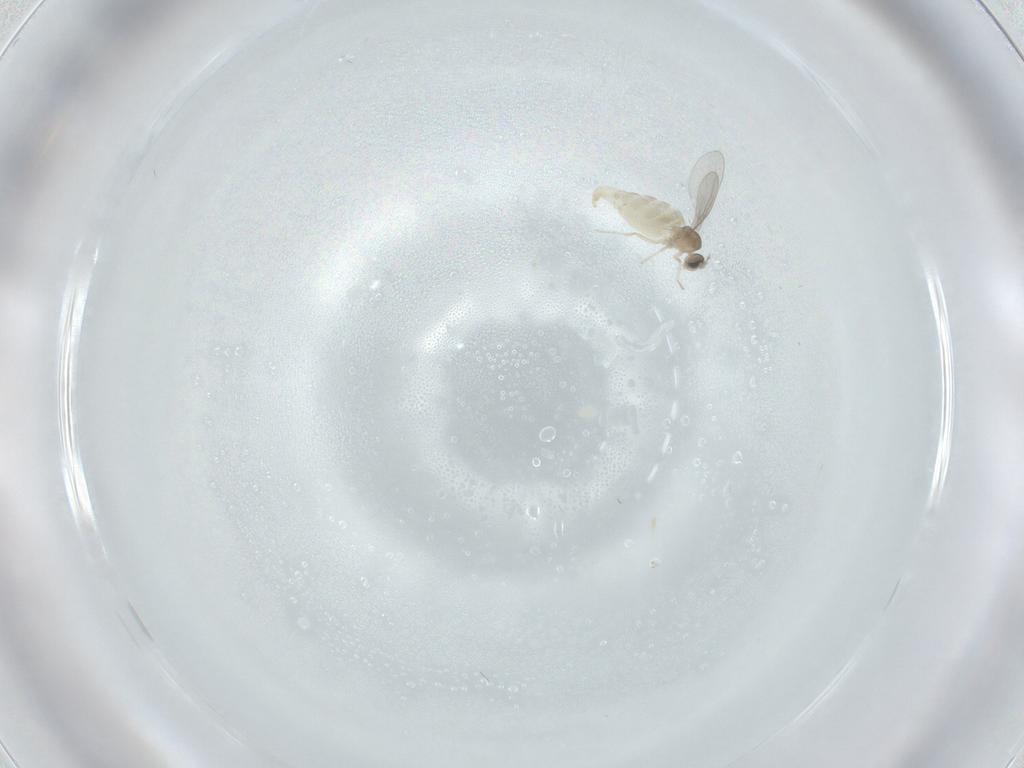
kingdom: Animalia
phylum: Arthropoda
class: Insecta
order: Diptera
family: Cecidomyiidae
